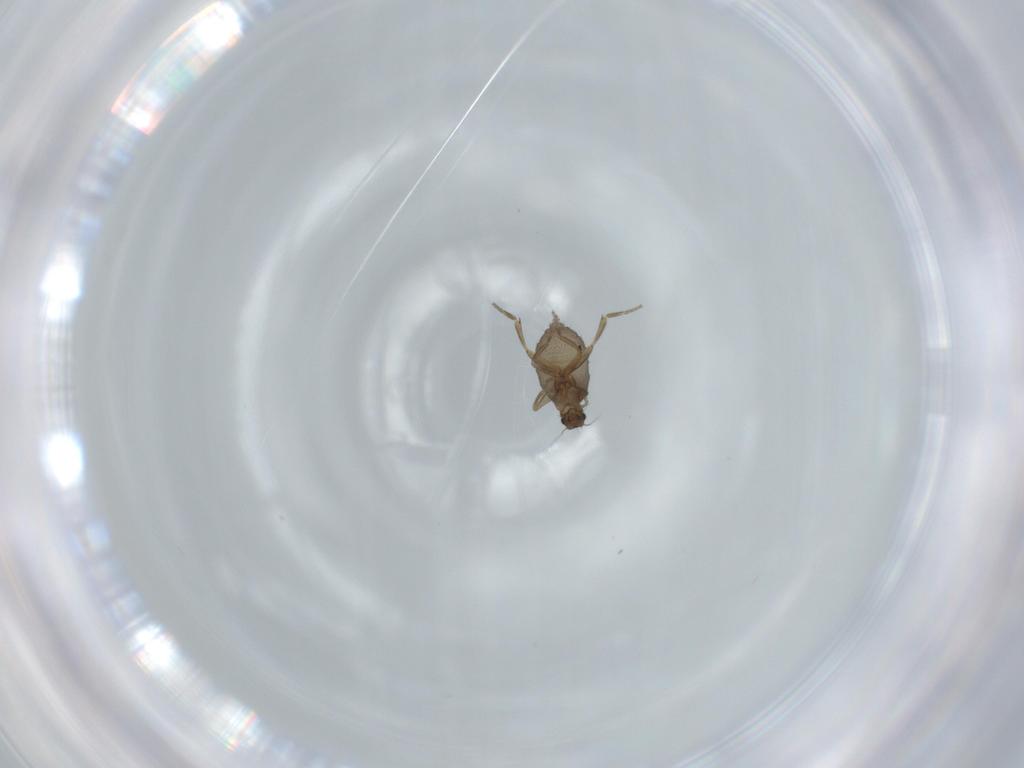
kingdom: Animalia
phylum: Arthropoda
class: Insecta
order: Diptera
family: Phoridae
